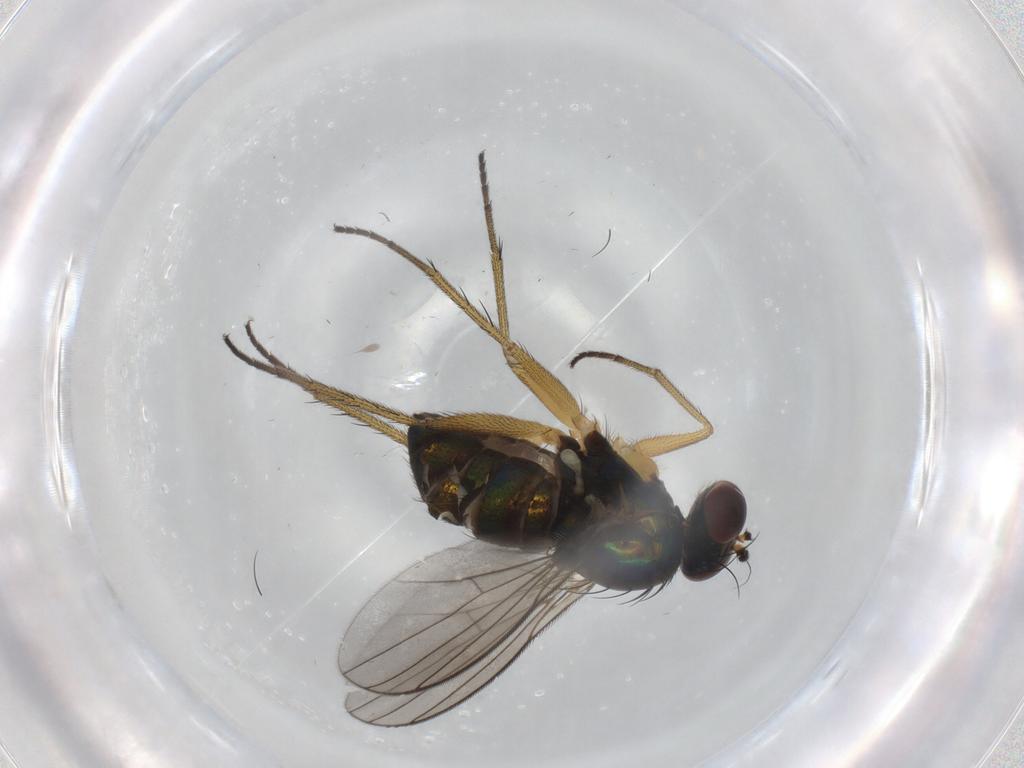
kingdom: Animalia
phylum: Arthropoda
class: Insecta
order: Diptera
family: Dolichopodidae
